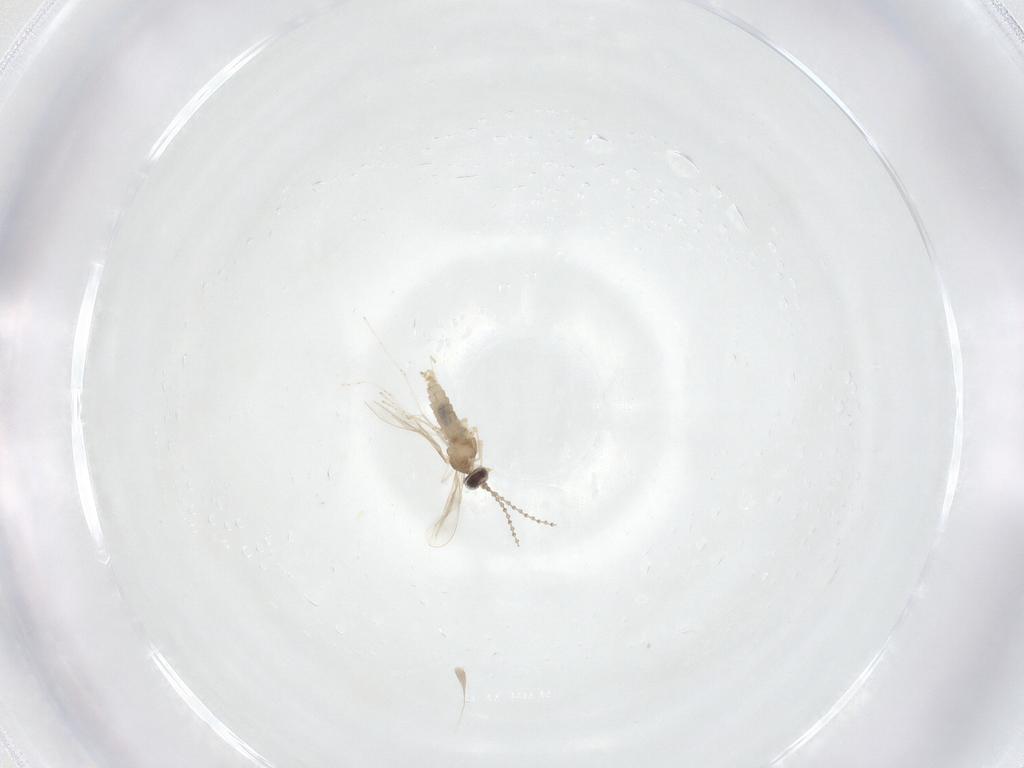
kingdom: Animalia
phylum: Arthropoda
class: Insecta
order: Diptera
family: Cecidomyiidae
